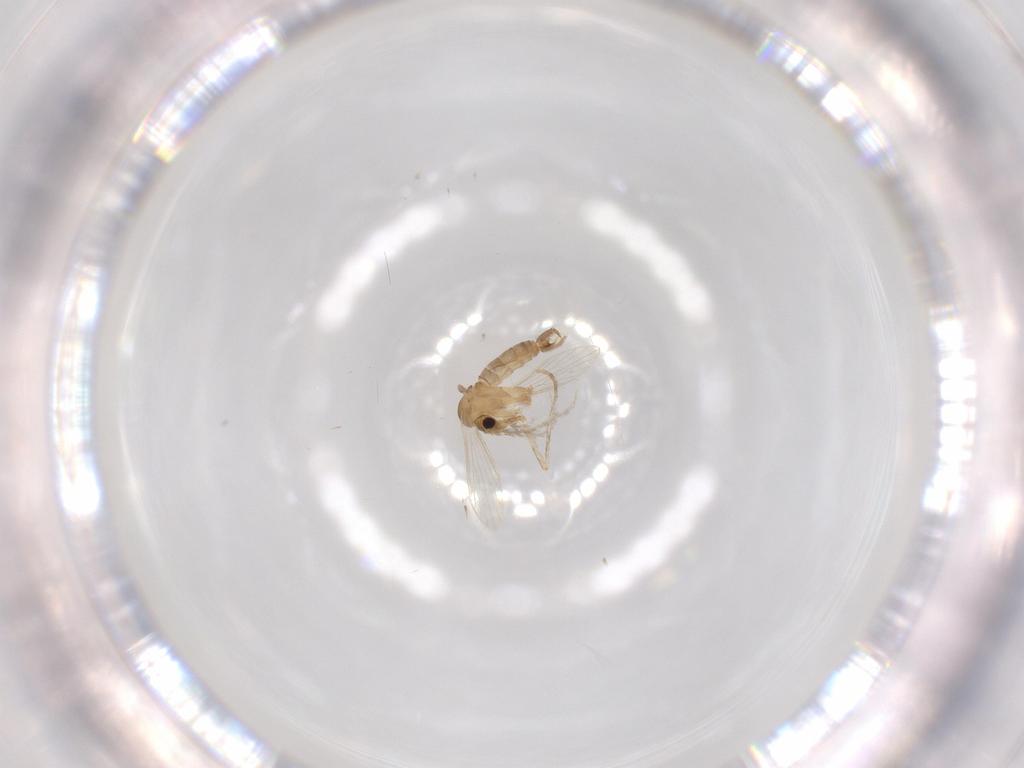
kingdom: Animalia
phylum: Arthropoda
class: Insecta
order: Diptera
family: Psychodidae
